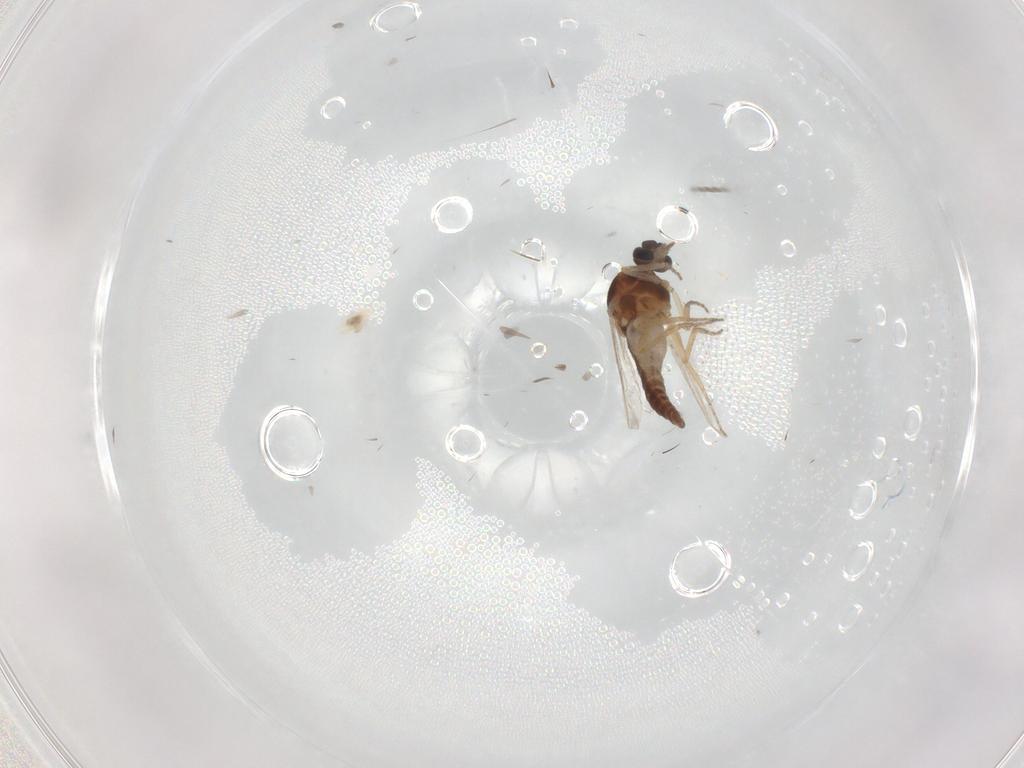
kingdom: Animalia
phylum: Arthropoda
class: Insecta
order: Diptera
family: Ceratopogonidae
